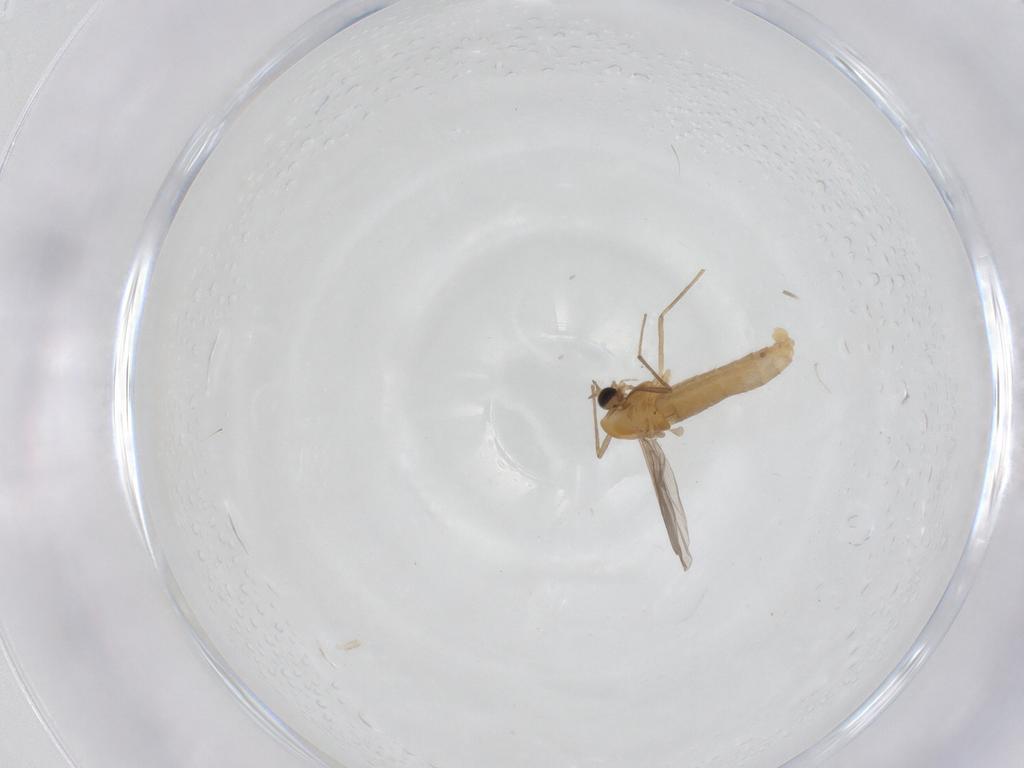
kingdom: Animalia
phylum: Arthropoda
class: Insecta
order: Diptera
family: Chironomidae
